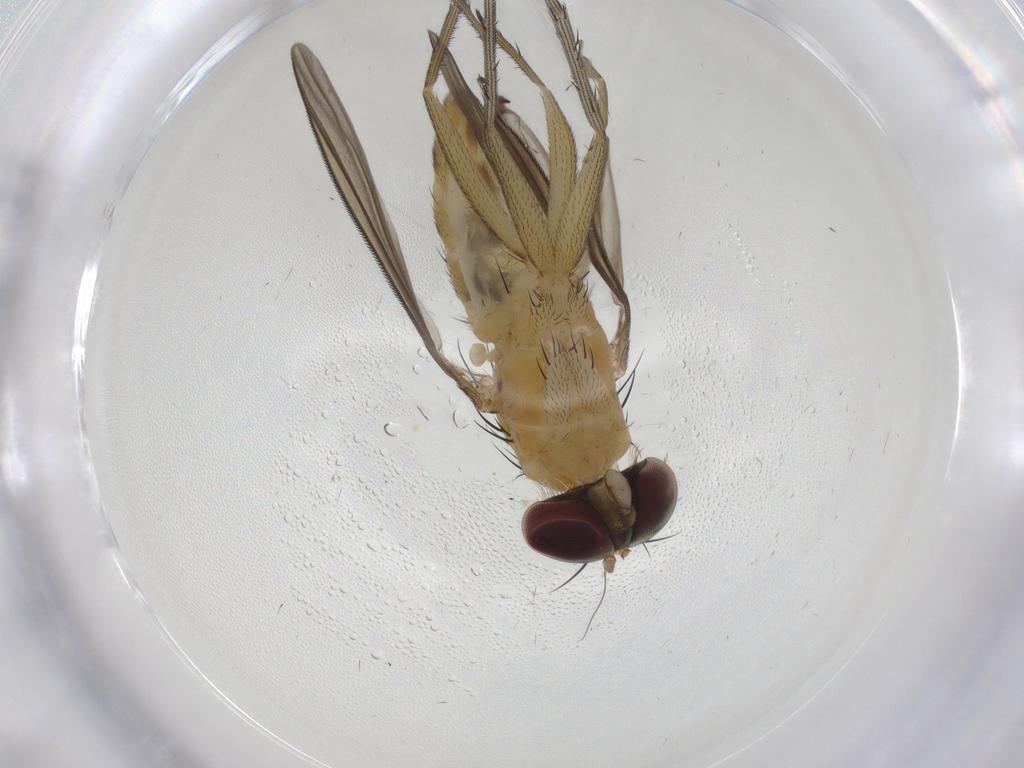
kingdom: Animalia
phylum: Arthropoda
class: Insecta
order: Diptera
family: Dolichopodidae
